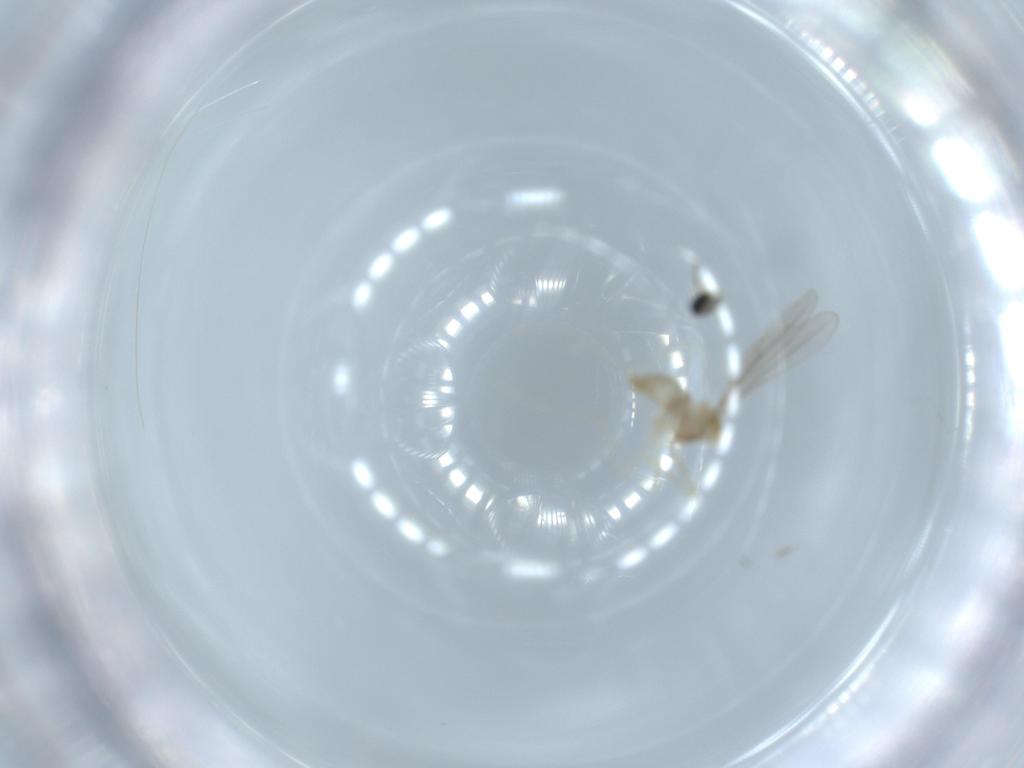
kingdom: Animalia
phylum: Arthropoda
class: Insecta
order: Diptera
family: Cecidomyiidae
